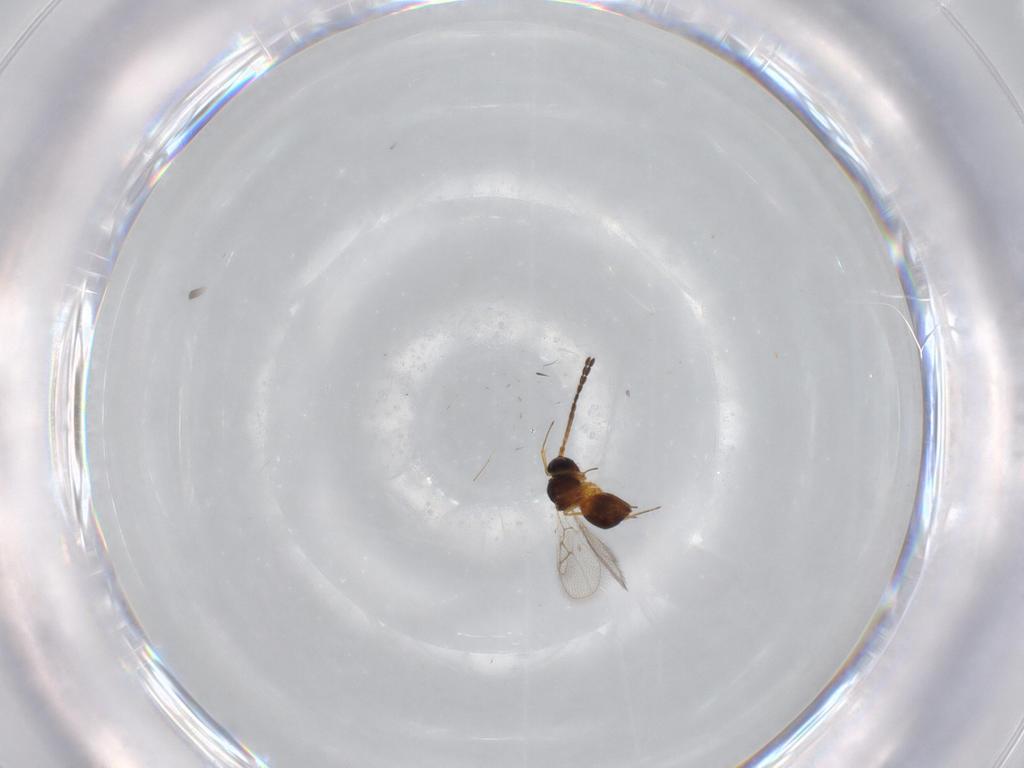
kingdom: Animalia
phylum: Arthropoda
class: Insecta
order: Hymenoptera
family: Figitidae
